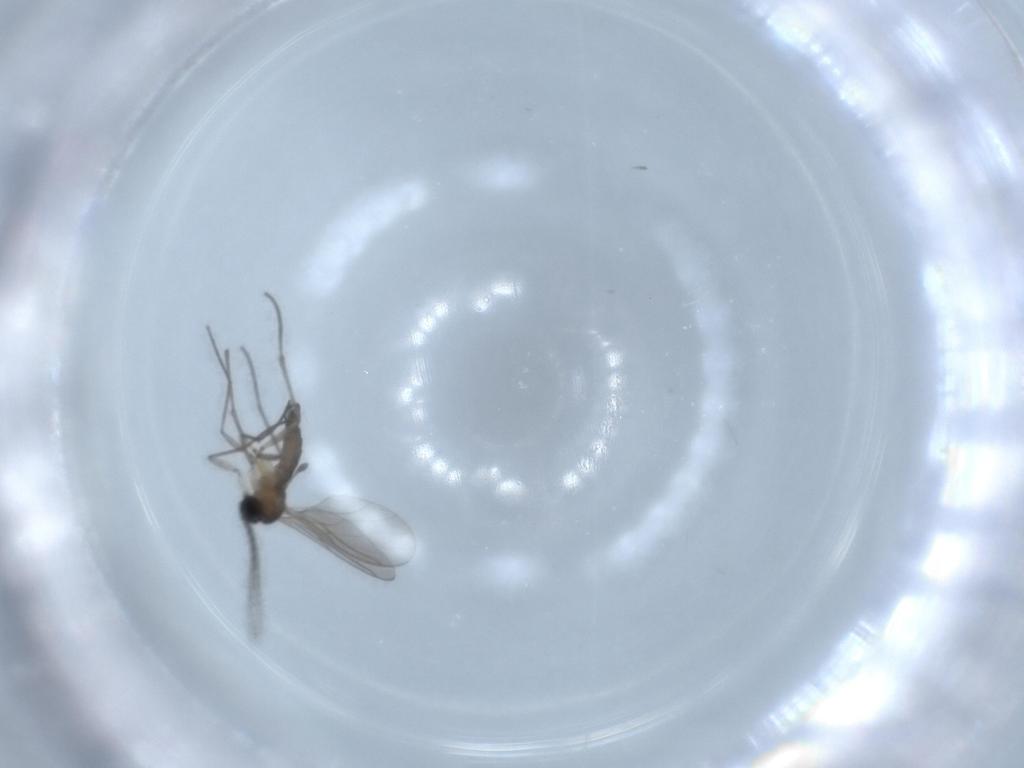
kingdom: Animalia
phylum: Arthropoda
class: Insecta
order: Diptera
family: Sciaridae
